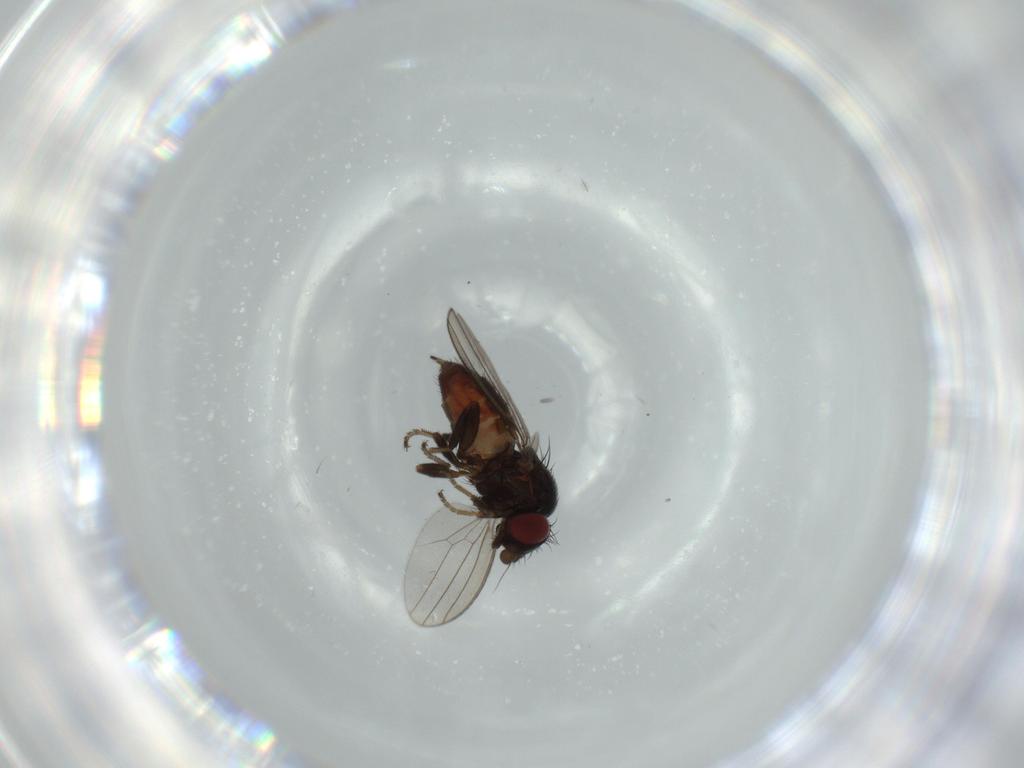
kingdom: Animalia
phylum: Arthropoda
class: Insecta
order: Diptera
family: Milichiidae
